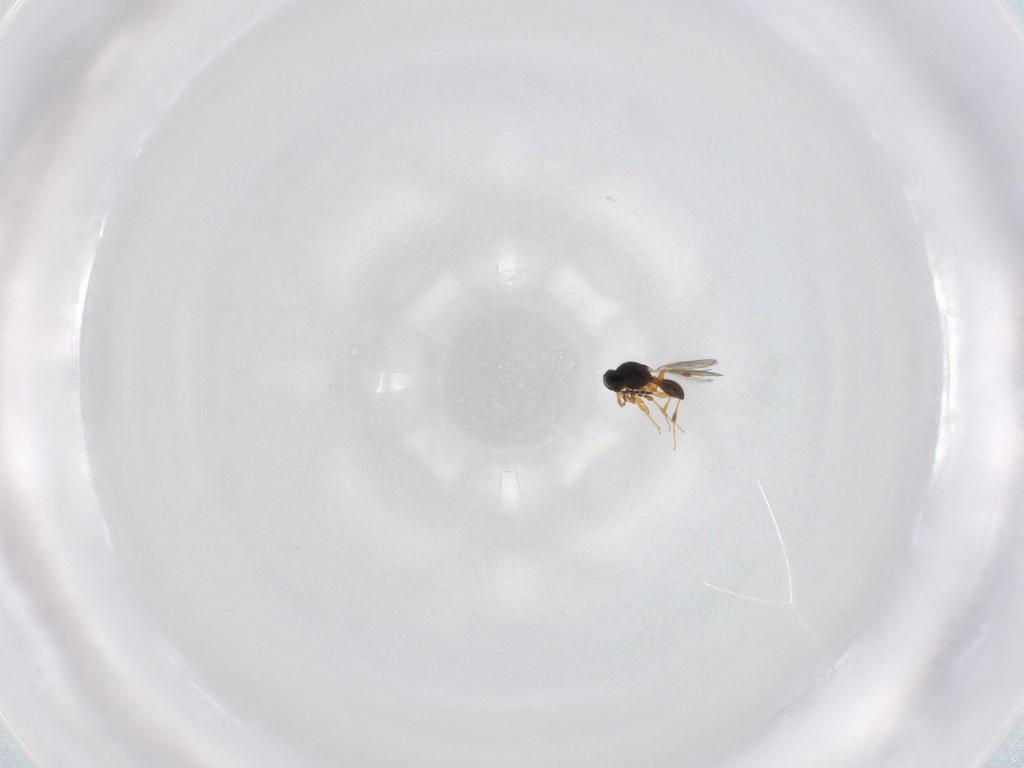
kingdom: Animalia
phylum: Arthropoda
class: Insecta
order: Hymenoptera
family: Platygastridae
